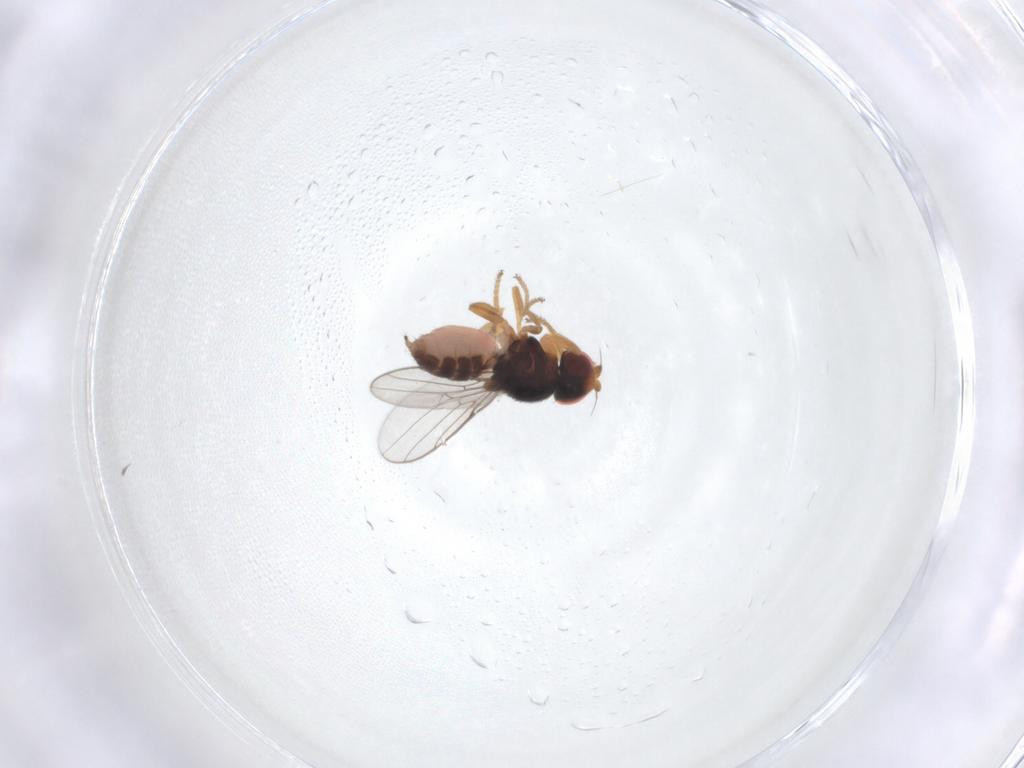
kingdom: Animalia
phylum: Arthropoda
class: Insecta
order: Diptera
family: Chloropidae
